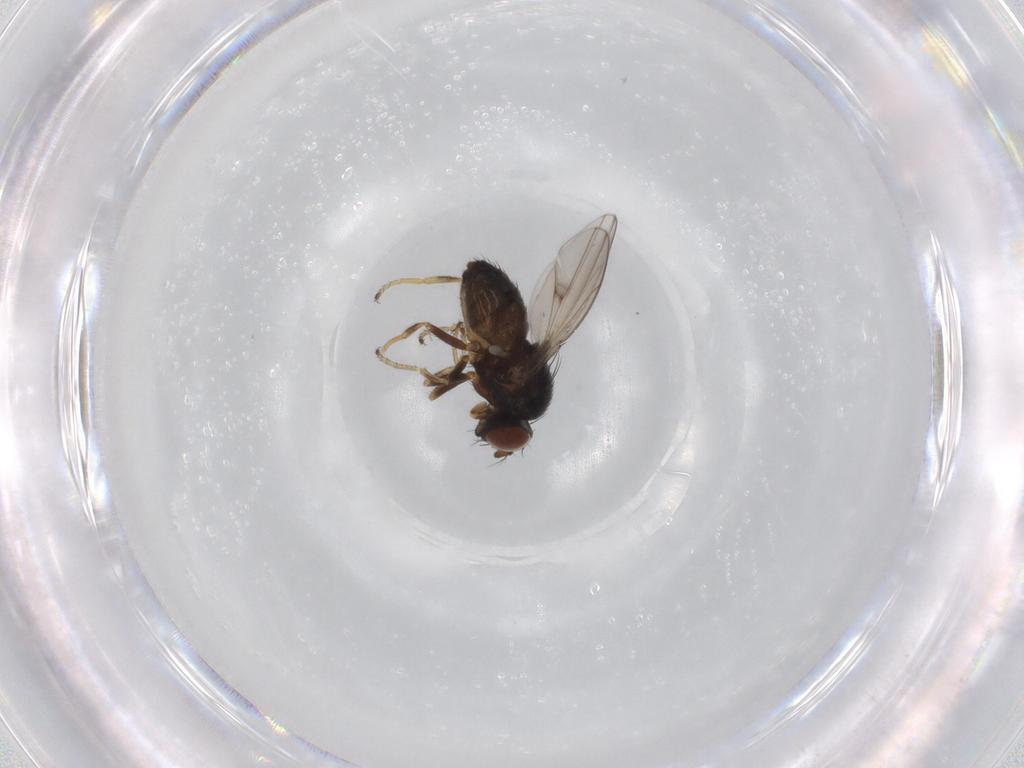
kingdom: Animalia
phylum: Arthropoda
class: Insecta
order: Diptera
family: Ephydridae
